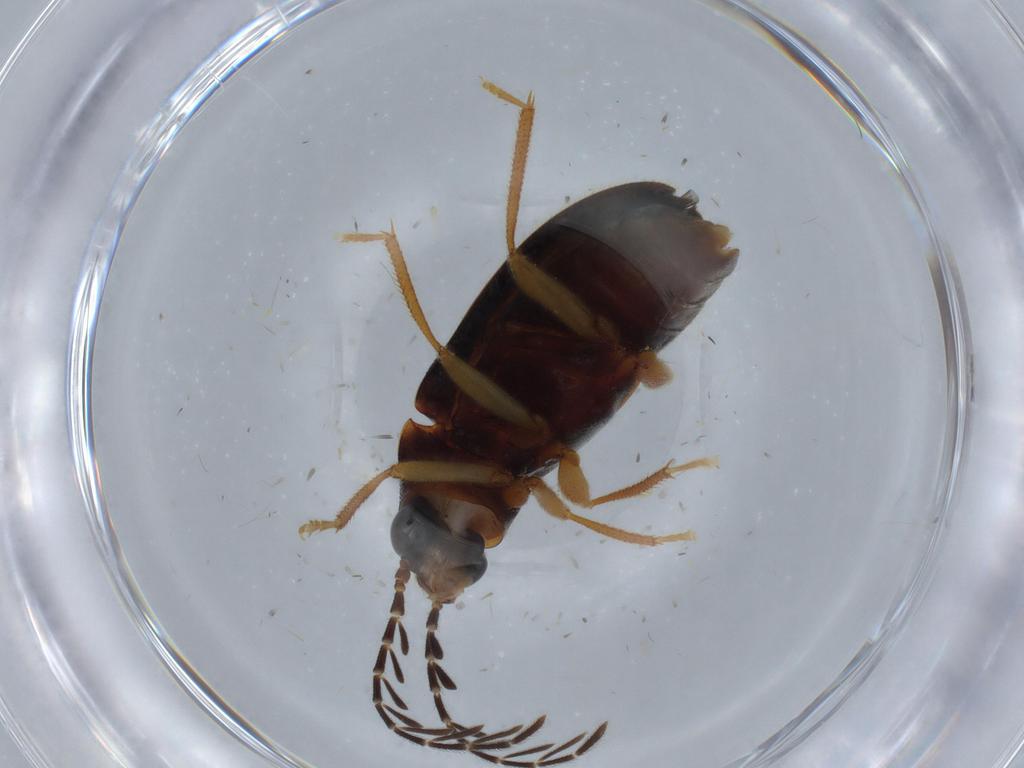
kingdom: Animalia
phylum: Arthropoda
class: Insecta
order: Coleoptera
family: Ptilodactylidae
